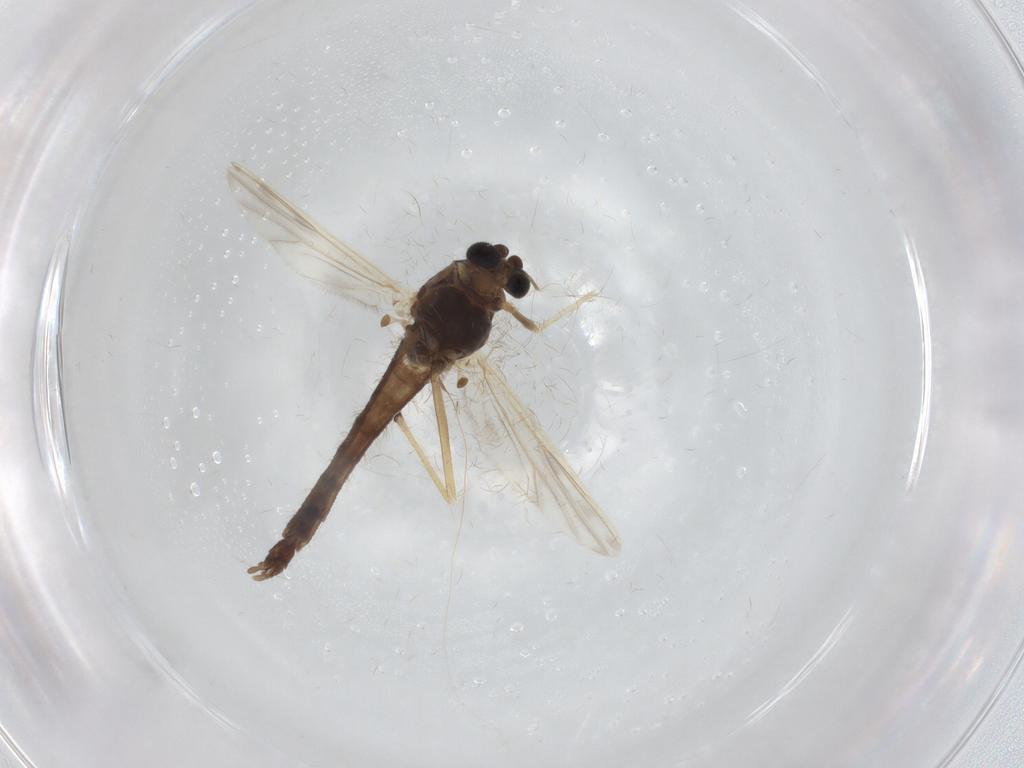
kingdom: Animalia
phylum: Arthropoda
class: Insecta
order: Diptera
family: Chironomidae
